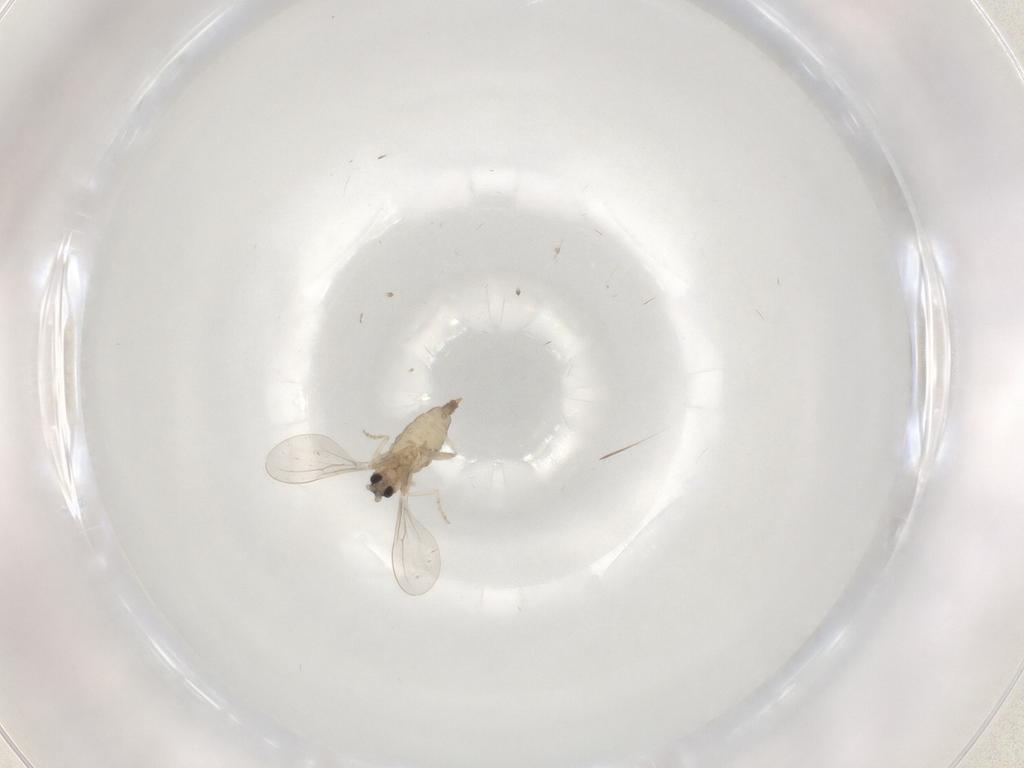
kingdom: Animalia
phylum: Arthropoda
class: Insecta
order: Diptera
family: Cecidomyiidae
